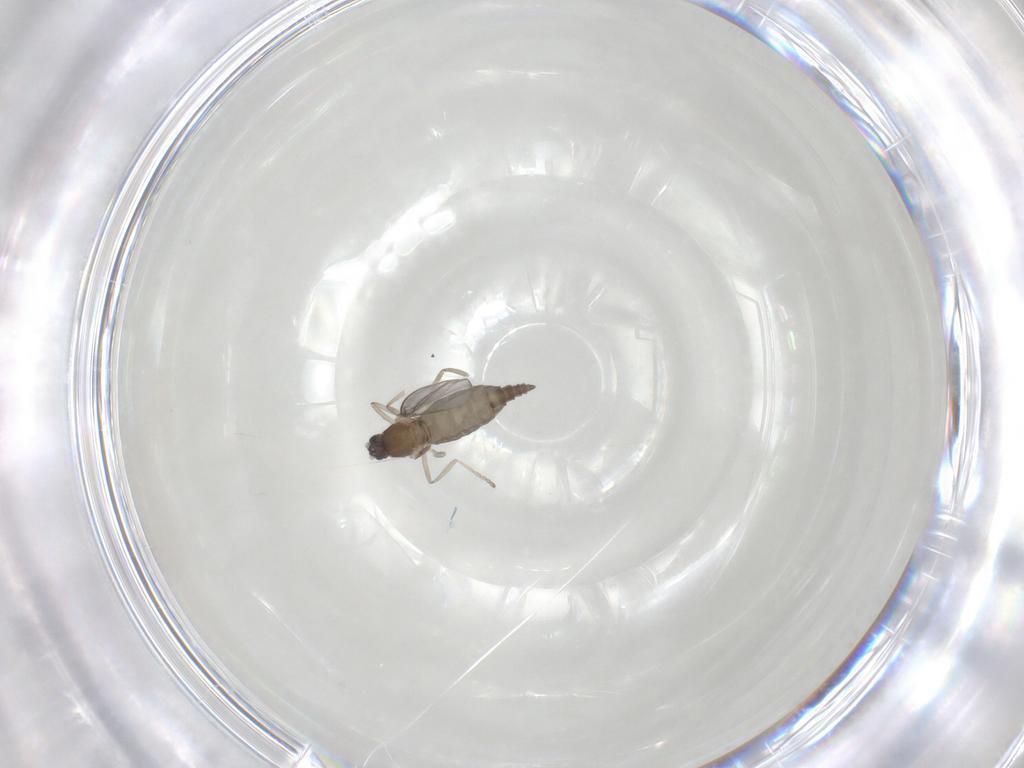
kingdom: Animalia
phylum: Arthropoda
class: Insecta
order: Diptera
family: Cecidomyiidae
